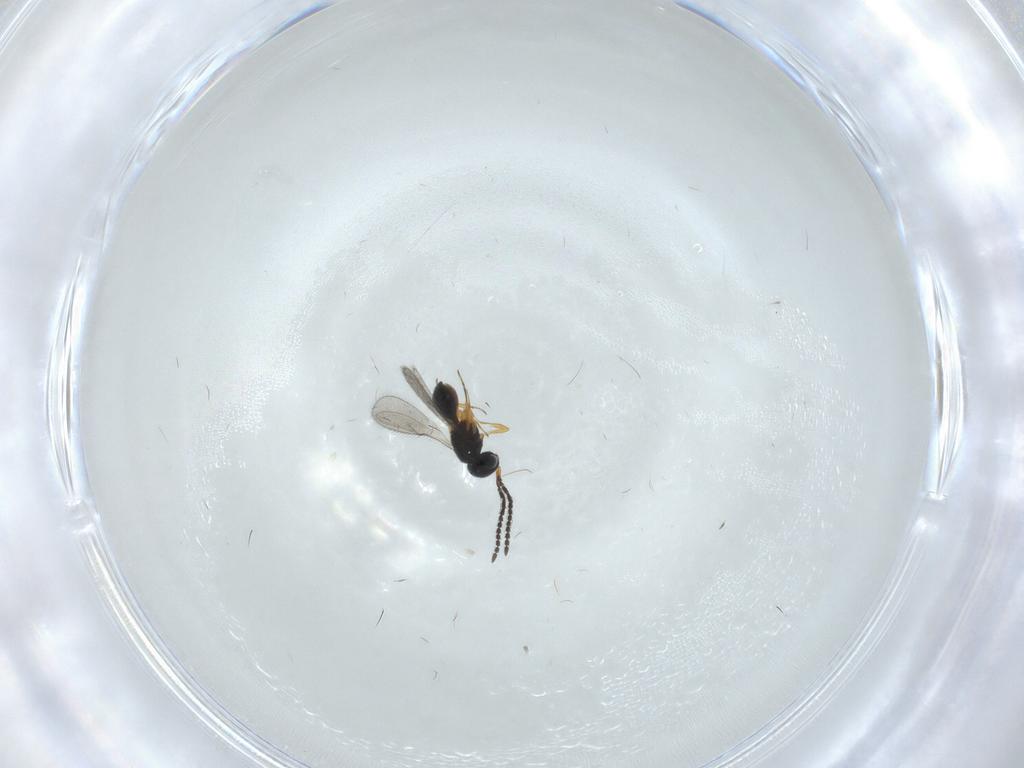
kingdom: Animalia
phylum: Arthropoda
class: Insecta
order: Hymenoptera
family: Scelionidae
